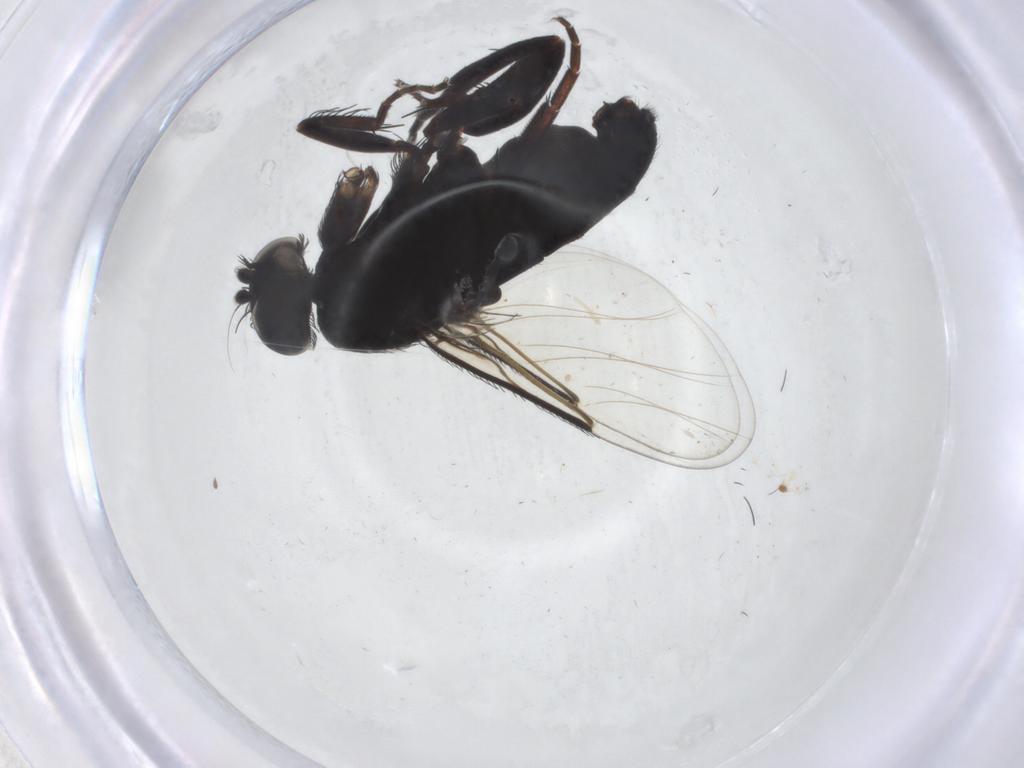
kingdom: Animalia
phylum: Arthropoda
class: Insecta
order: Diptera
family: Phoridae
